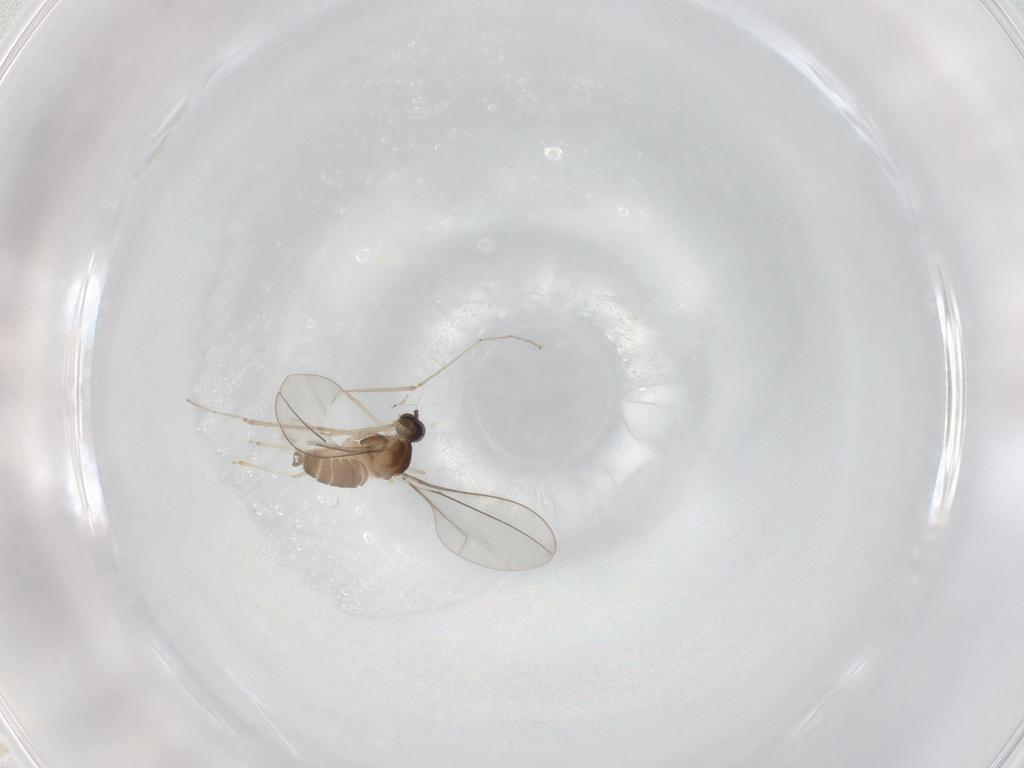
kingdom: Animalia
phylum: Arthropoda
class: Insecta
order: Diptera
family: Cecidomyiidae
